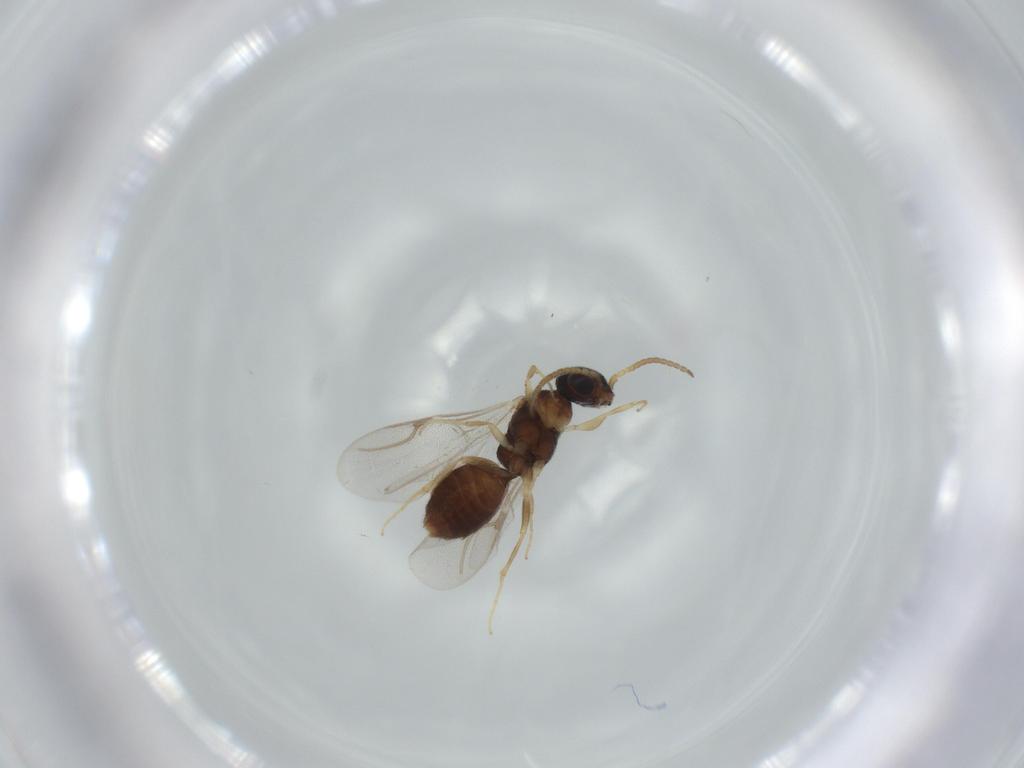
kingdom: Animalia
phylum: Arthropoda
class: Insecta
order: Hymenoptera
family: Bethylidae
